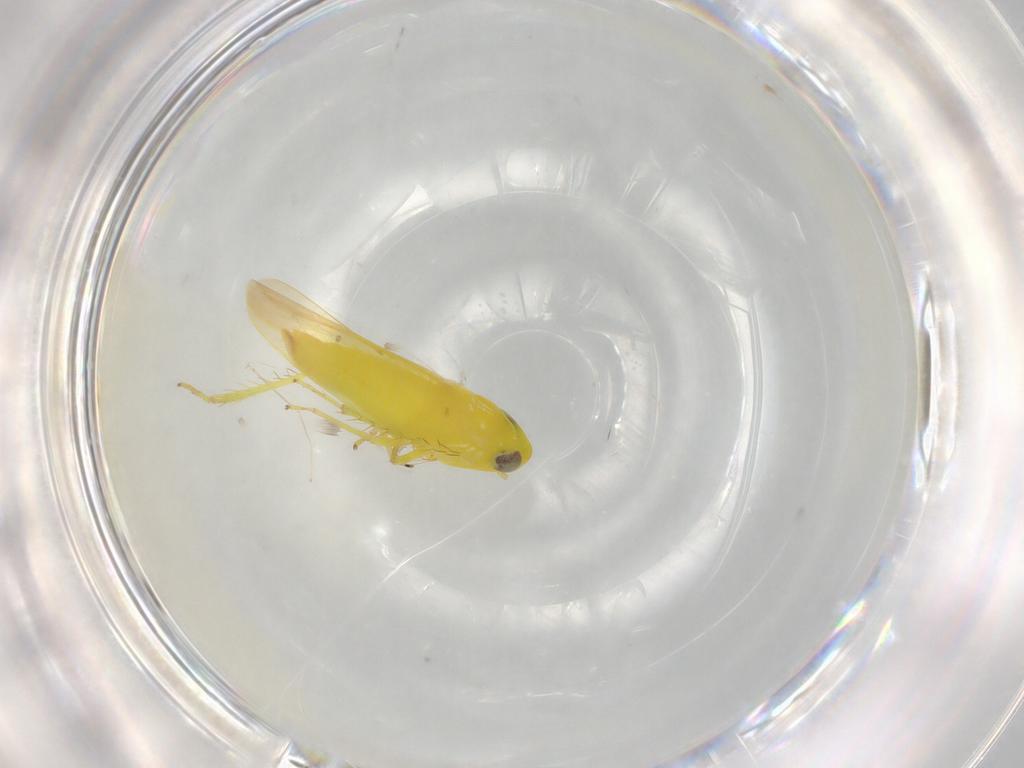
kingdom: Animalia
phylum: Arthropoda
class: Insecta
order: Hemiptera
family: Cicadellidae
